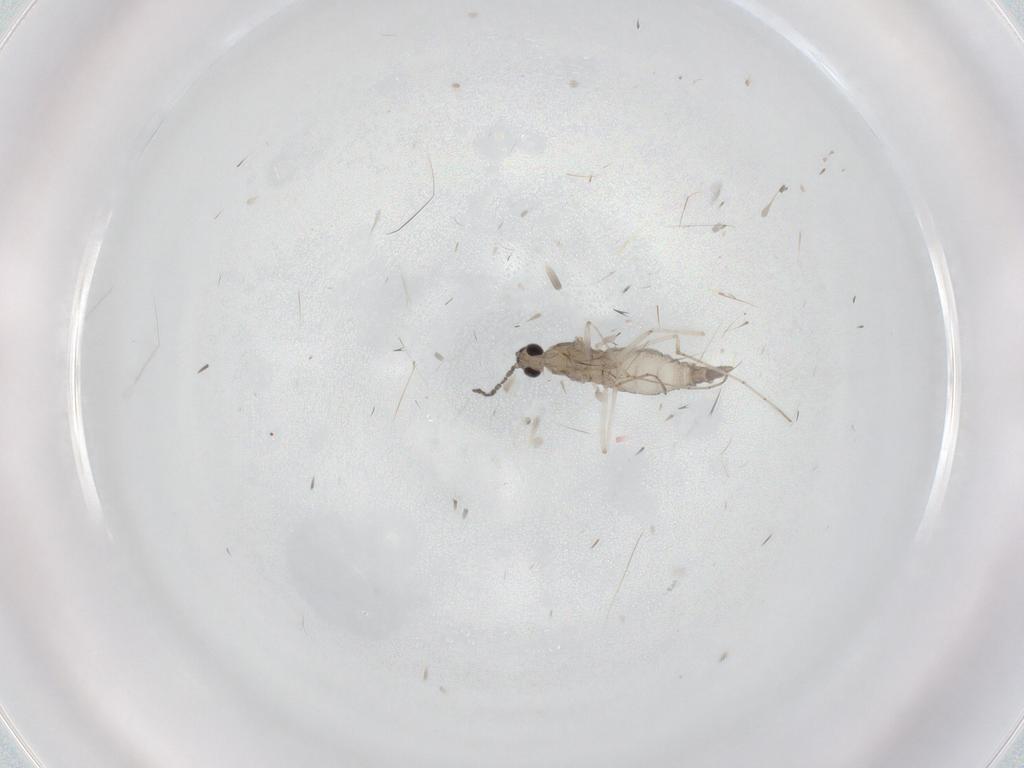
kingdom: Animalia
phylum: Arthropoda
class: Insecta
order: Diptera
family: Cecidomyiidae
